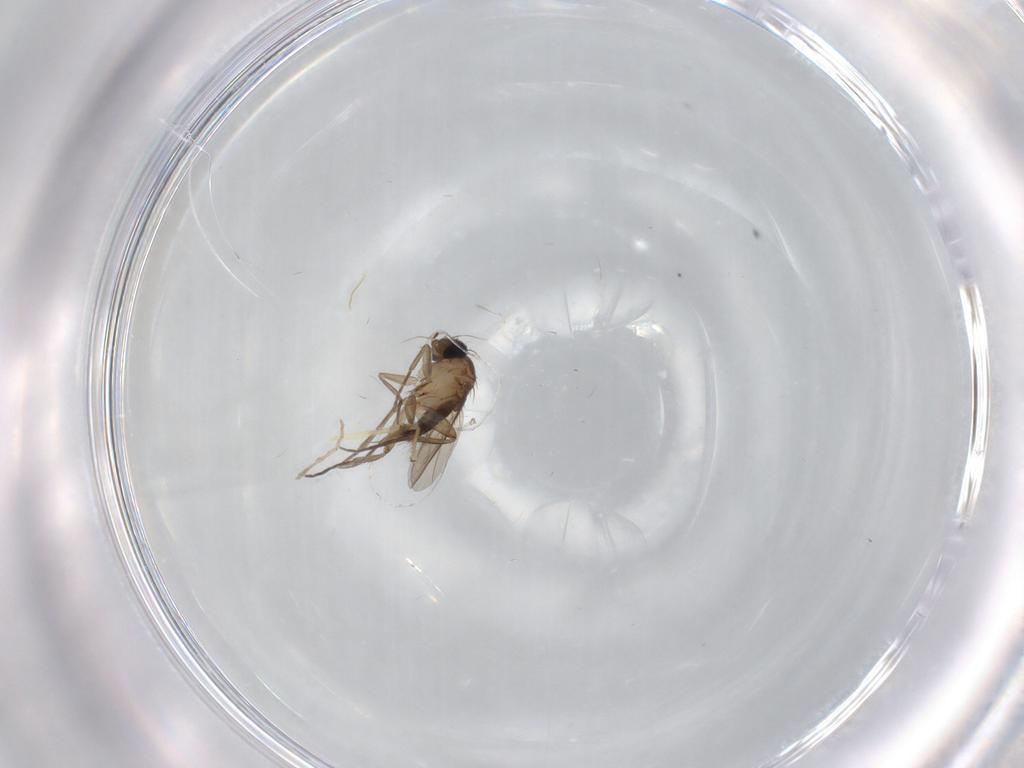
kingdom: Animalia
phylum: Arthropoda
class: Insecta
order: Diptera
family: Phoridae
